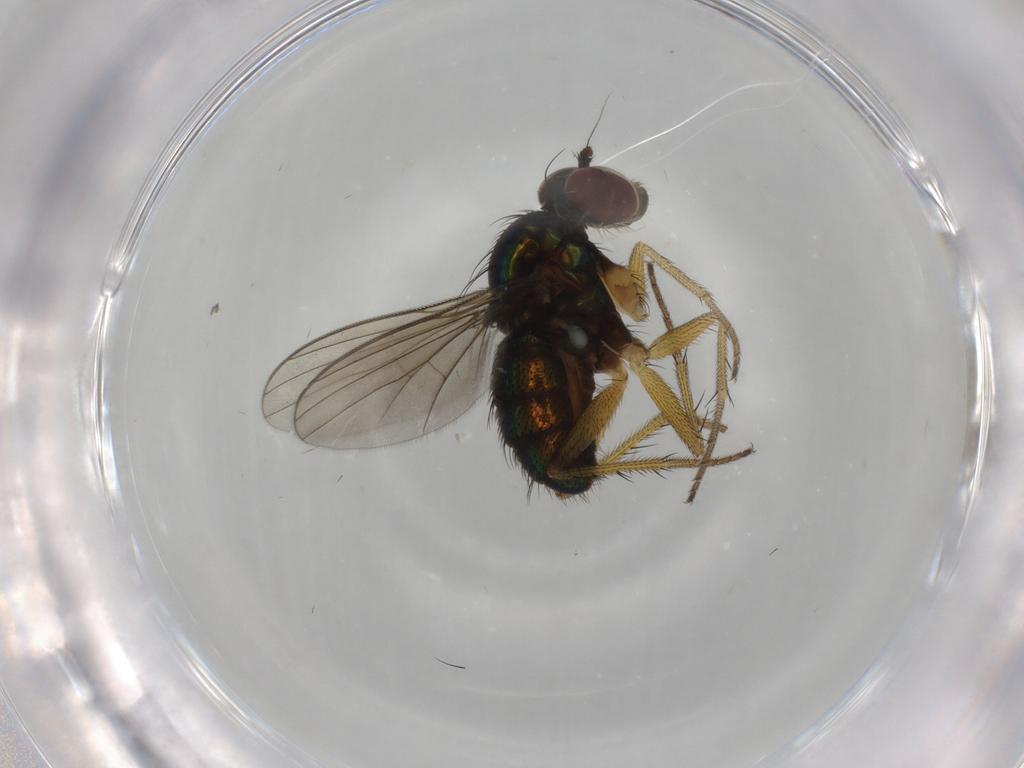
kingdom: Animalia
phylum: Arthropoda
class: Insecta
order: Diptera
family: Dolichopodidae
